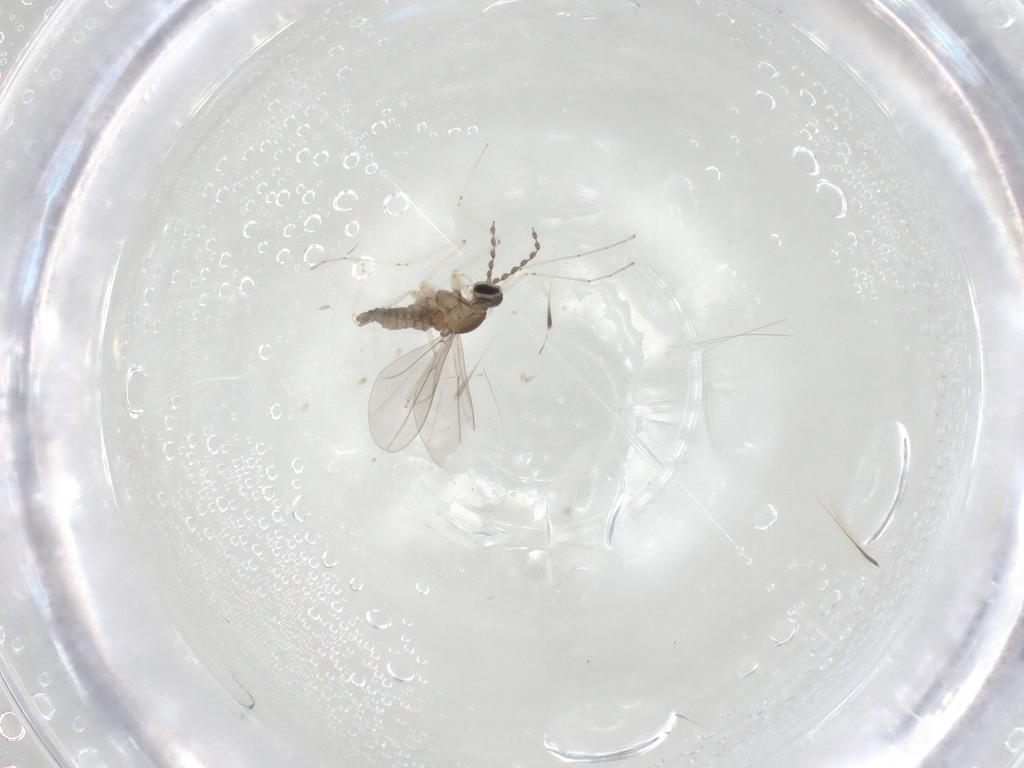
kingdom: Animalia
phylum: Arthropoda
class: Insecta
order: Diptera
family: Cecidomyiidae
